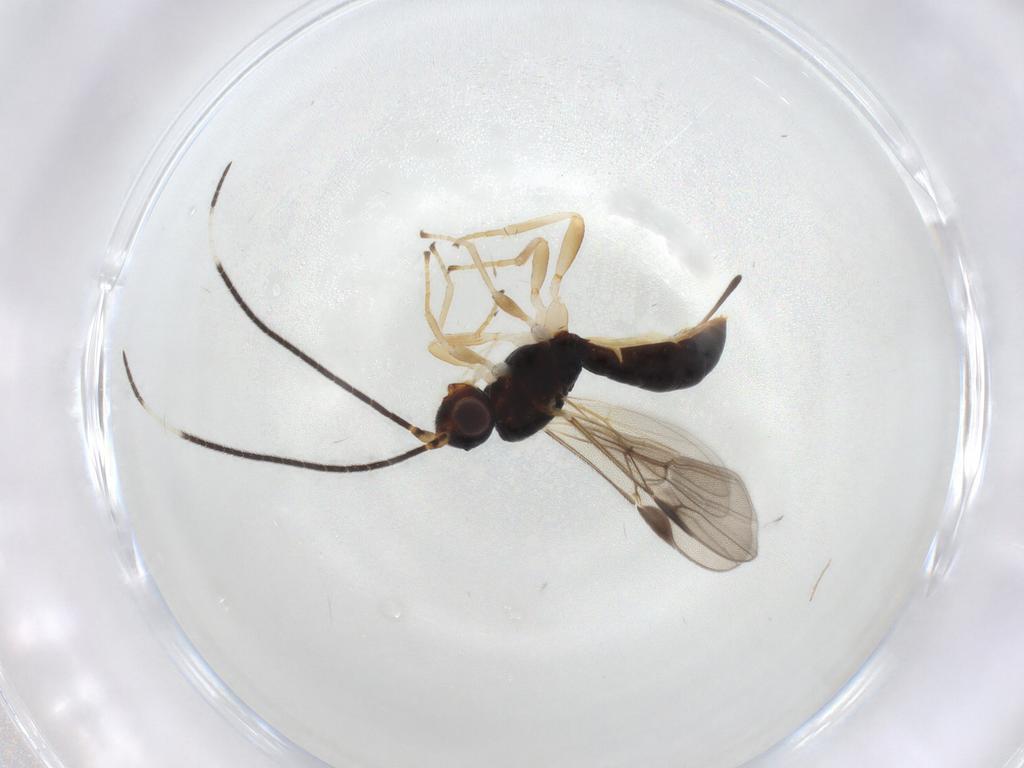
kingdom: Animalia
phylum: Arthropoda
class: Insecta
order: Hymenoptera
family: Braconidae
